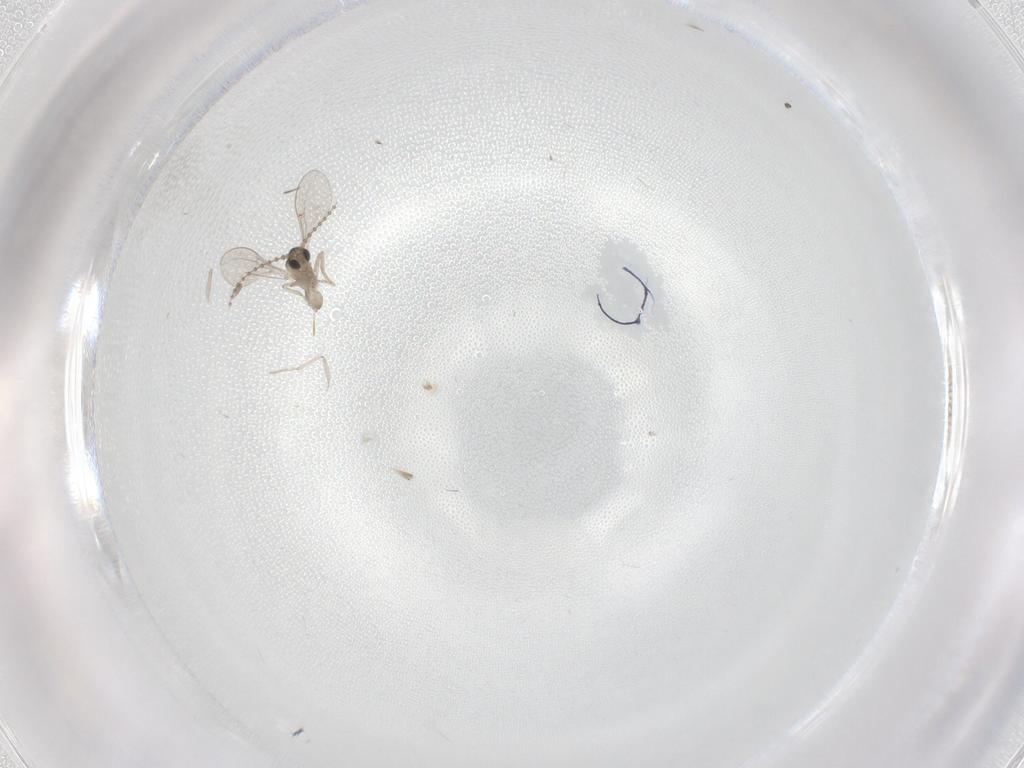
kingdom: Animalia
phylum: Arthropoda
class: Insecta
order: Diptera
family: Cecidomyiidae
